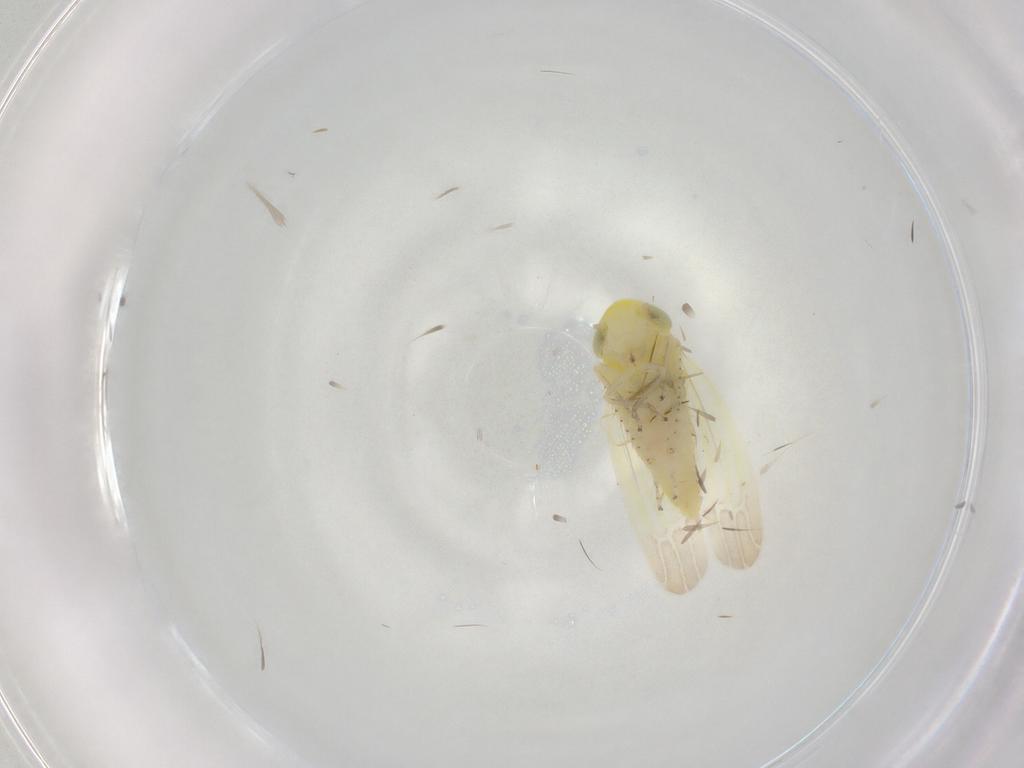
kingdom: Animalia
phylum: Arthropoda
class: Insecta
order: Hemiptera
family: Cicadellidae
